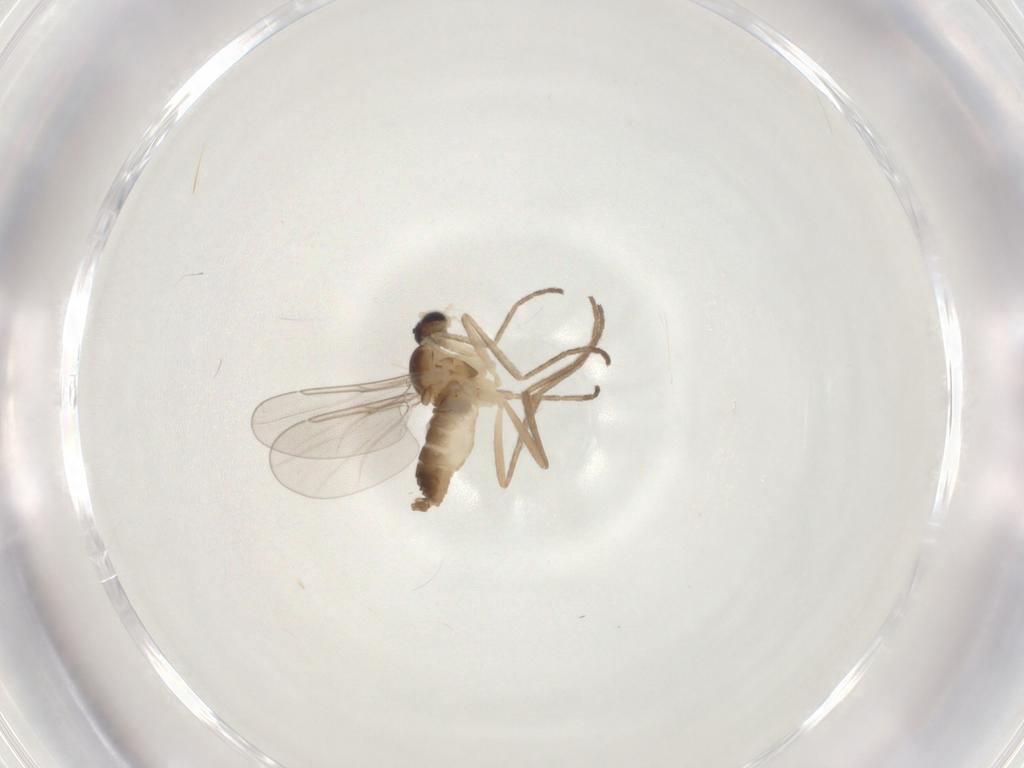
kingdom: Animalia
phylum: Arthropoda
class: Insecta
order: Diptera
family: Cecidomyiidae
